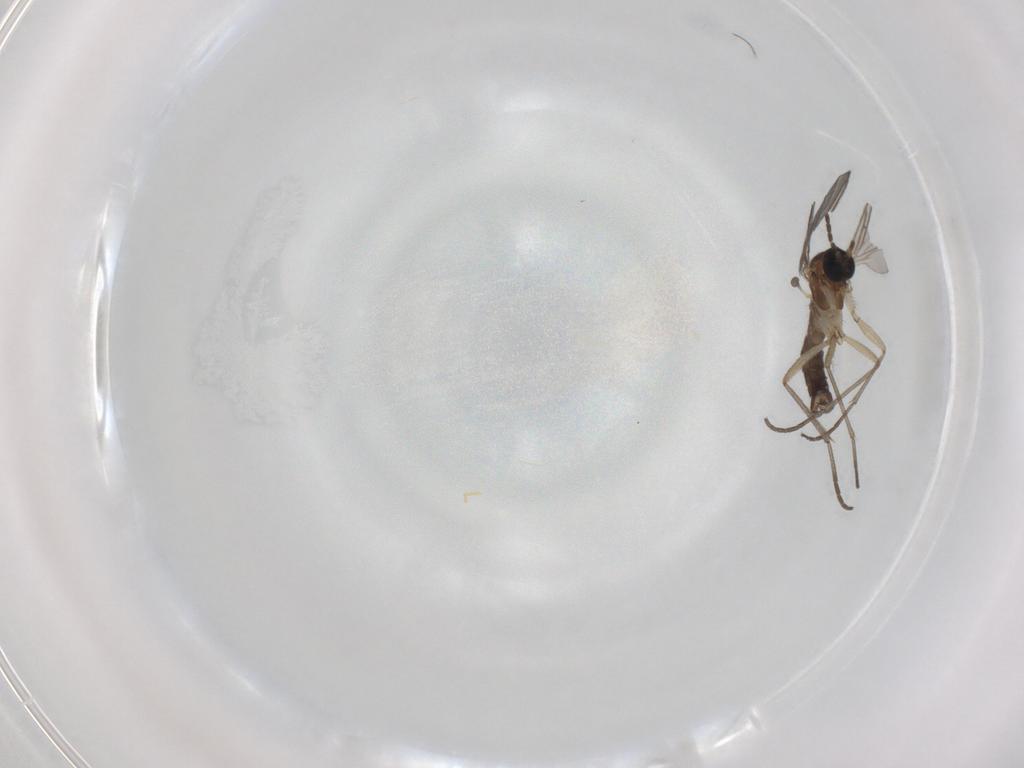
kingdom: Animalia
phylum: Arthropoda
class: Insecta
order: Diptera
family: Sciaridae
